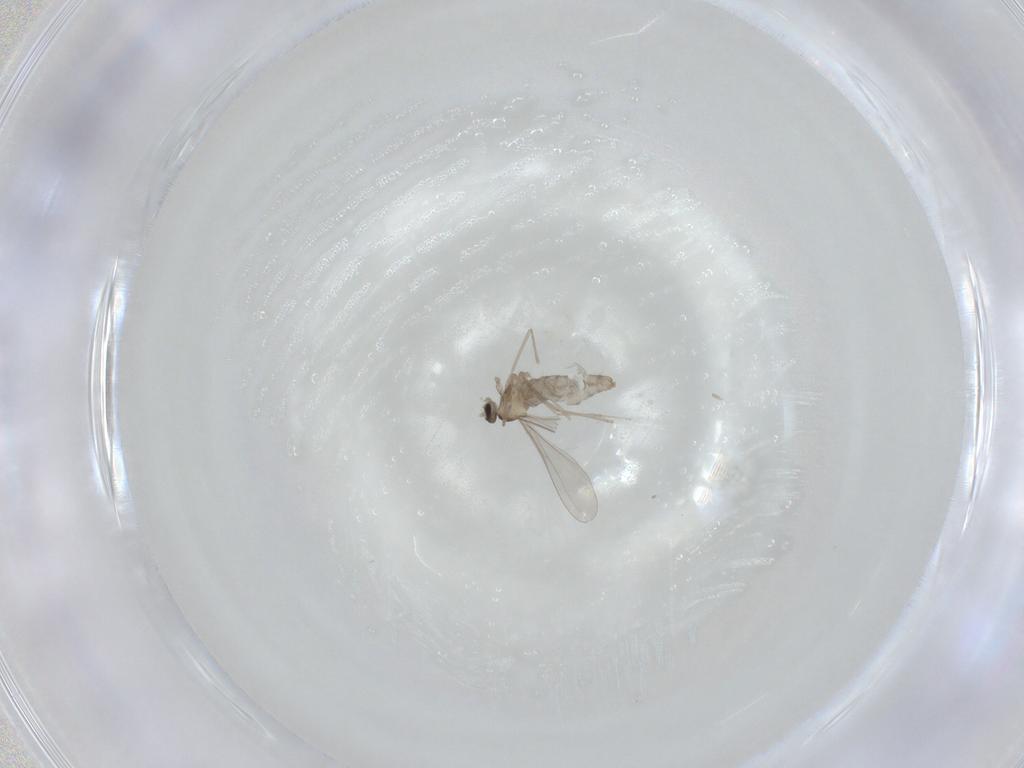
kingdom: Animalia
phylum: Arthropoda
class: Insecta
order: Diptera
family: Cecidomyiidae
